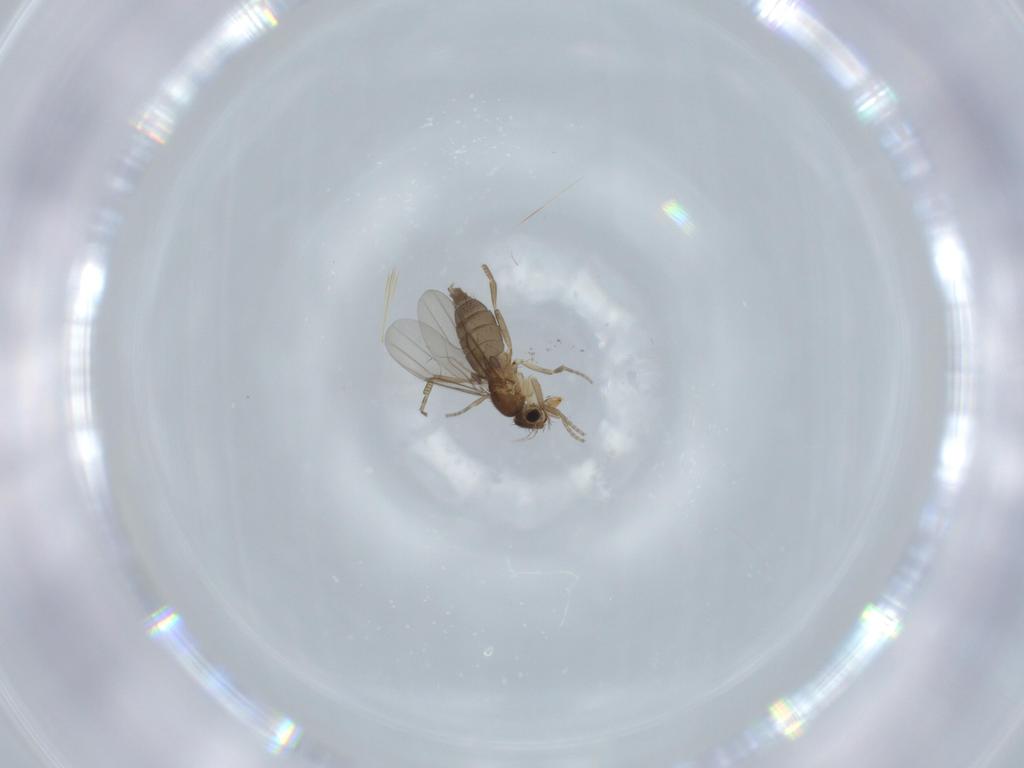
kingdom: Animalia
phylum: Arthropoda
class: Insecta
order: Diptera
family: Dolichopodidae
